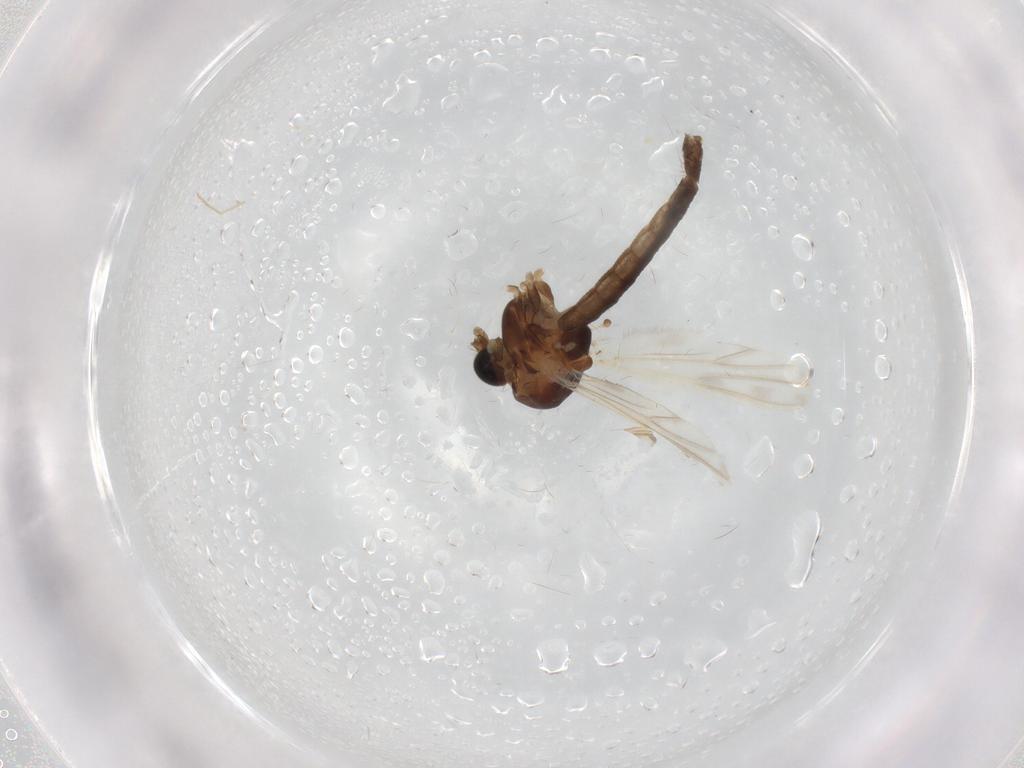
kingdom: Animalia
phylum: Arthropoda
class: Insecta
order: Diptera
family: Chironomidae
